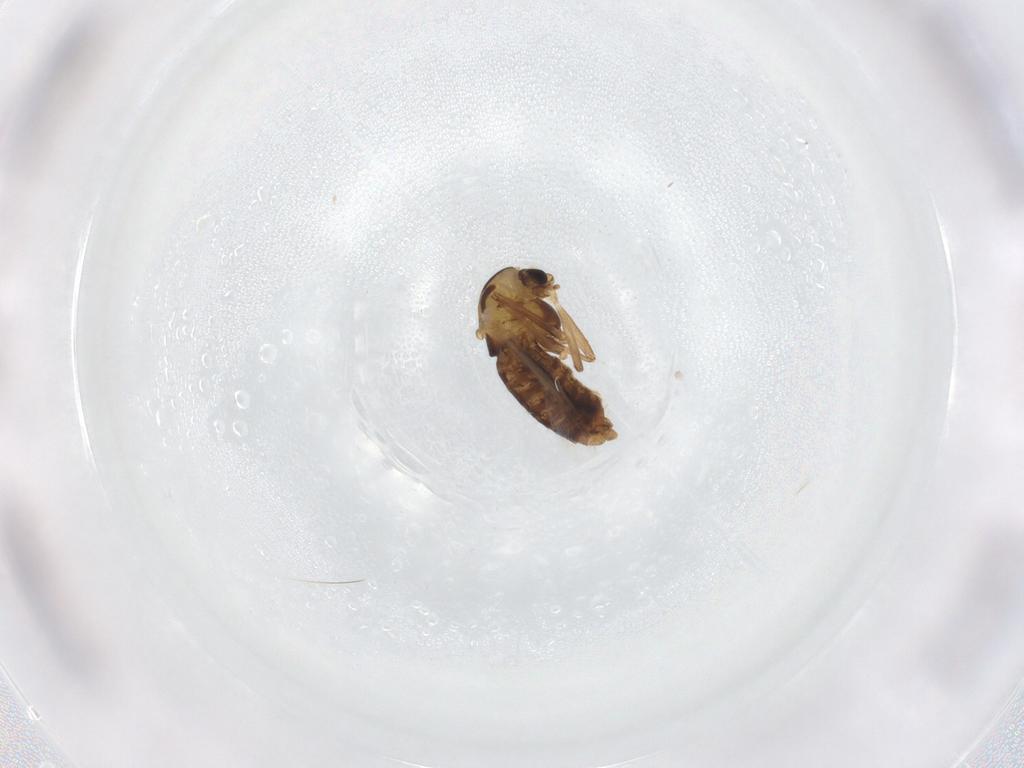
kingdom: Animalia
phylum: Arthropoda
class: Insecta
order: Diptera
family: Chironomidae
